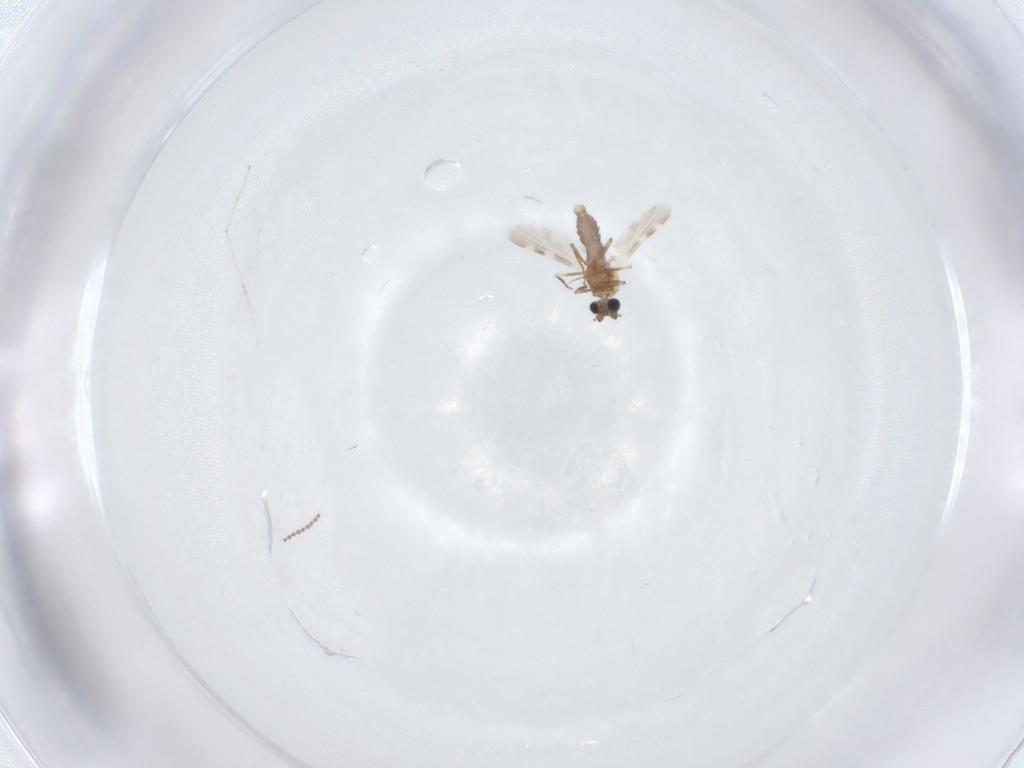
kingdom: Animalia
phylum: Arthropoda
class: Insecta
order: Diptera
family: Ceratopogonidae
